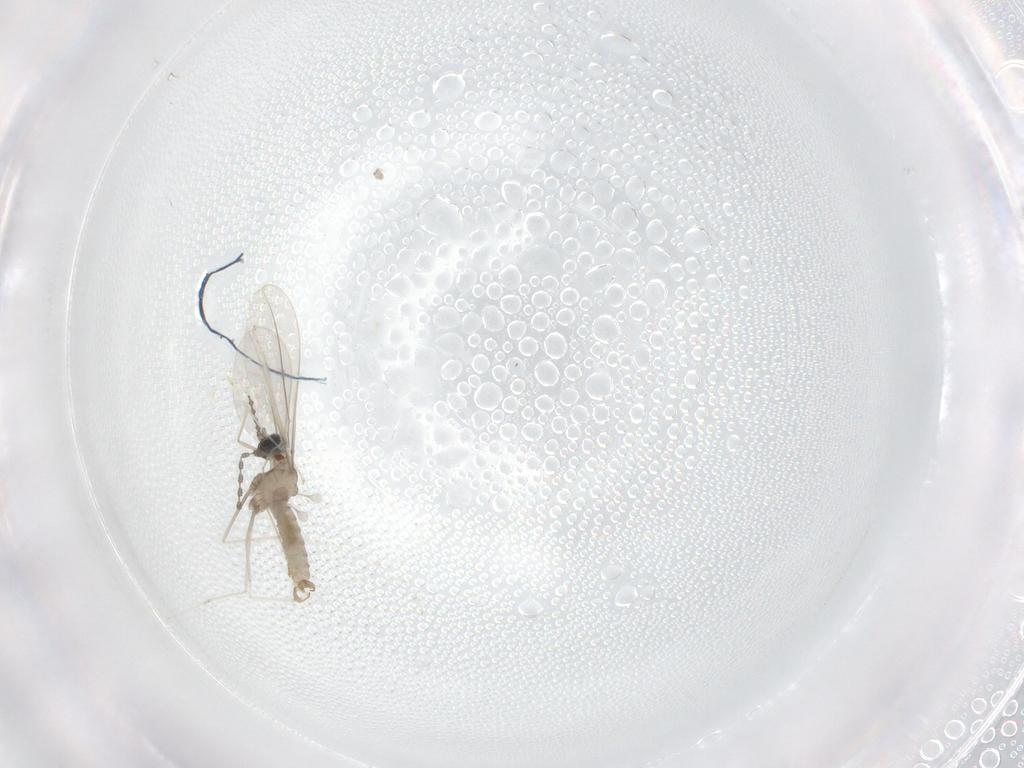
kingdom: Animalia
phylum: Arthropoda
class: Insecta
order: Diptera
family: Cecidomyiidae
